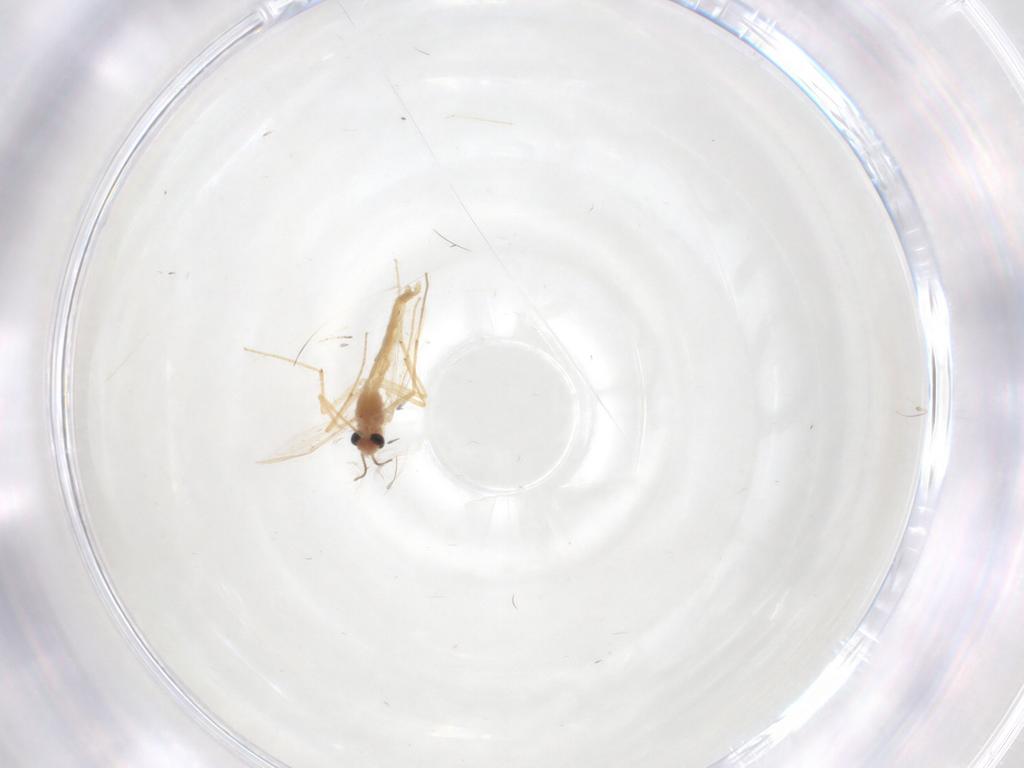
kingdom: Animalia
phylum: Arthropoda
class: Insecta
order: Diptera
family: Chironomidae
